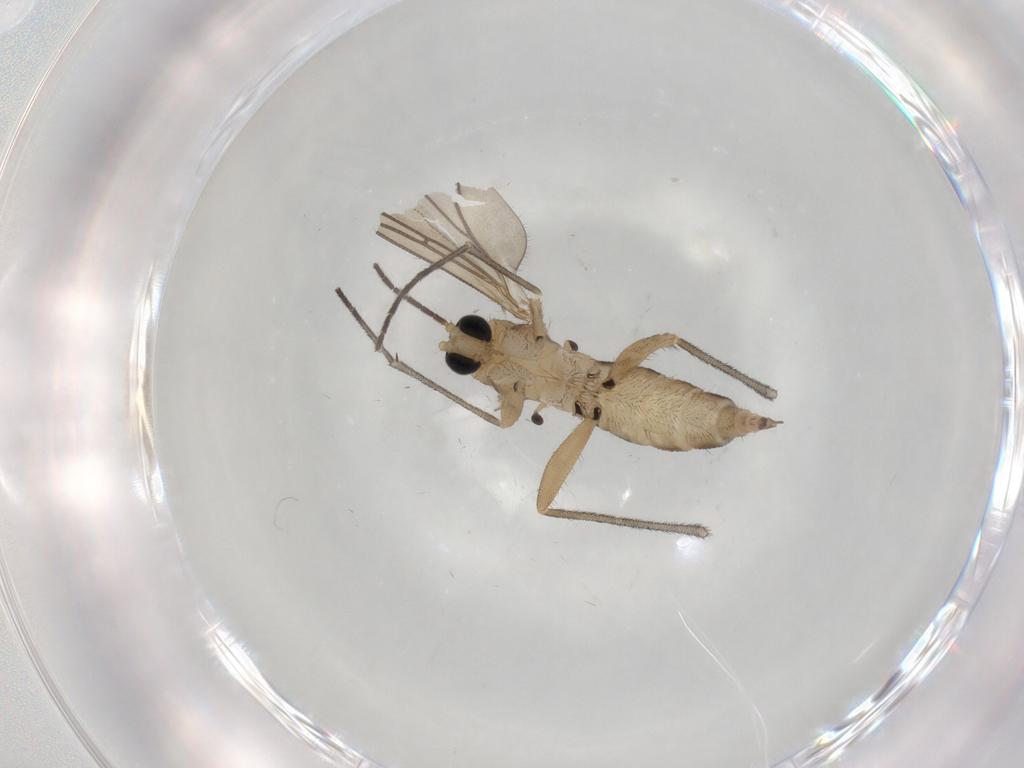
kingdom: Animalia
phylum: Arthropoda
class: Insecta
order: Diptera
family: Sciaridae
